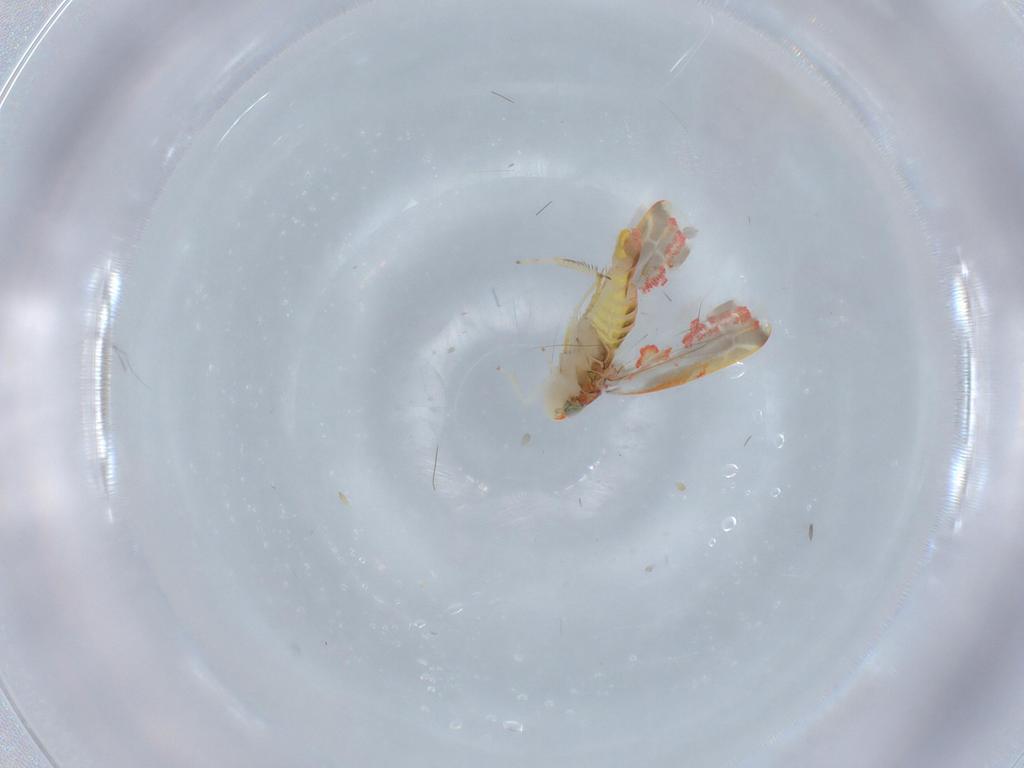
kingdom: Animalia
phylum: Arthropoda
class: Insecta
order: Hemiptera
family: Cicadellidae
